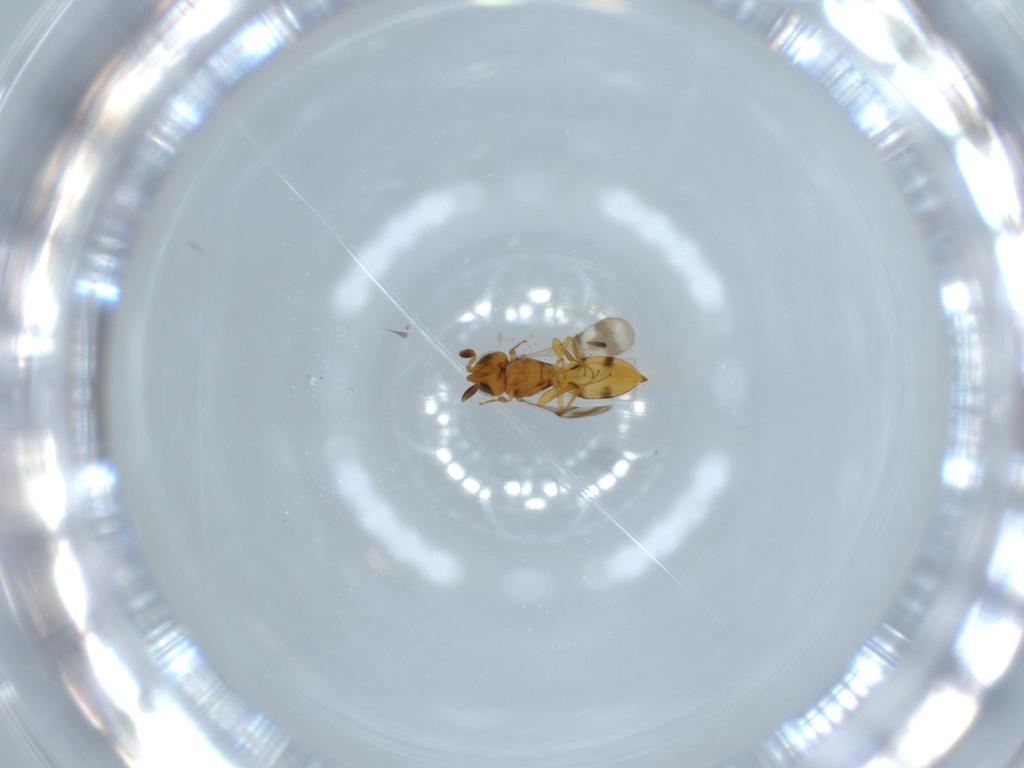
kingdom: Animalia
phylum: Arthropoda
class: Insecta
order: Hymenoptera
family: Scelionidae
